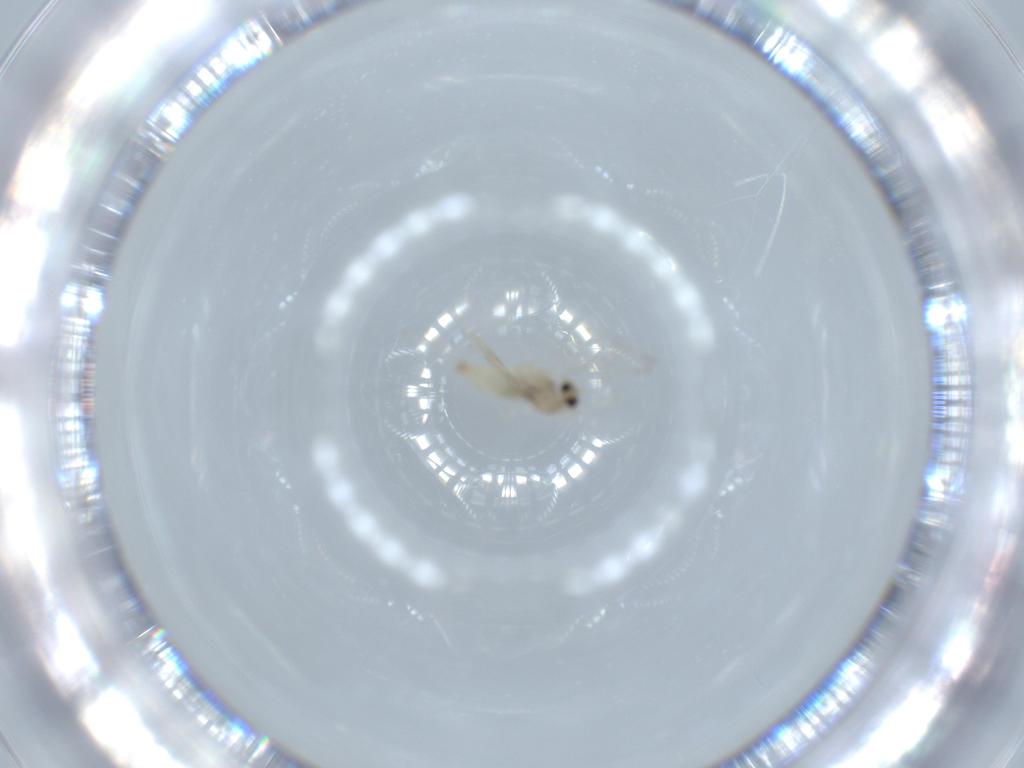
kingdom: Animalia
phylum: Arthropoda
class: Insecta
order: Diptera
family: Cecidomyiidae
